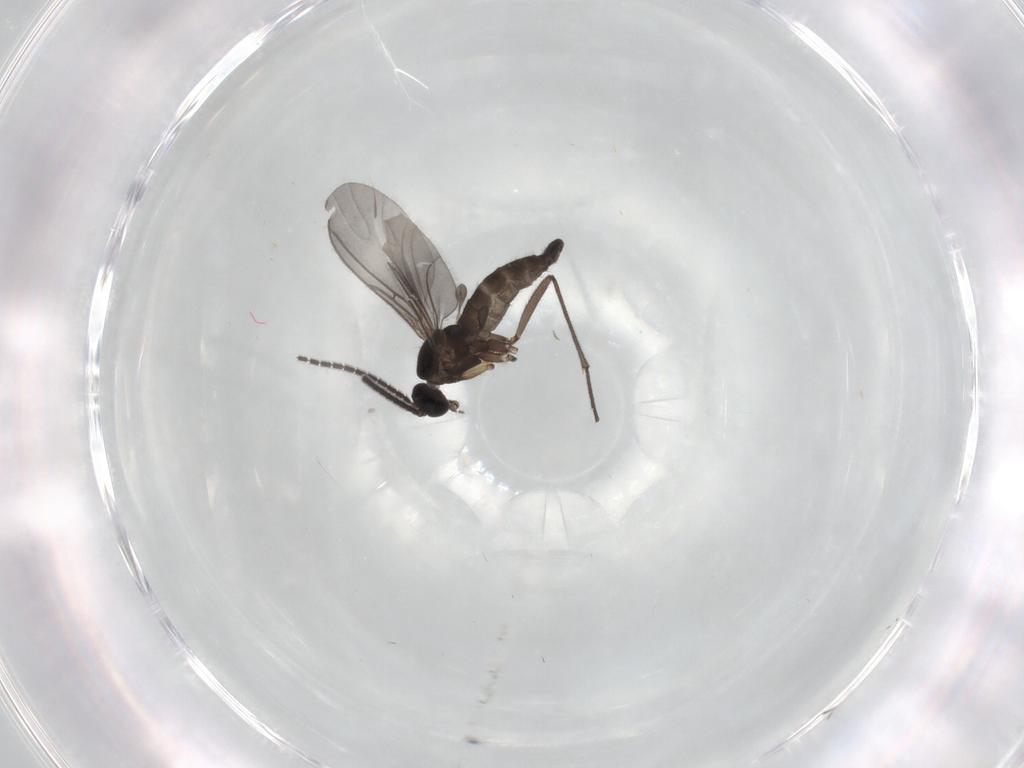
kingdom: Animalia
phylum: Arthropoda
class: Insecta
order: Diptera
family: Sciaridae
